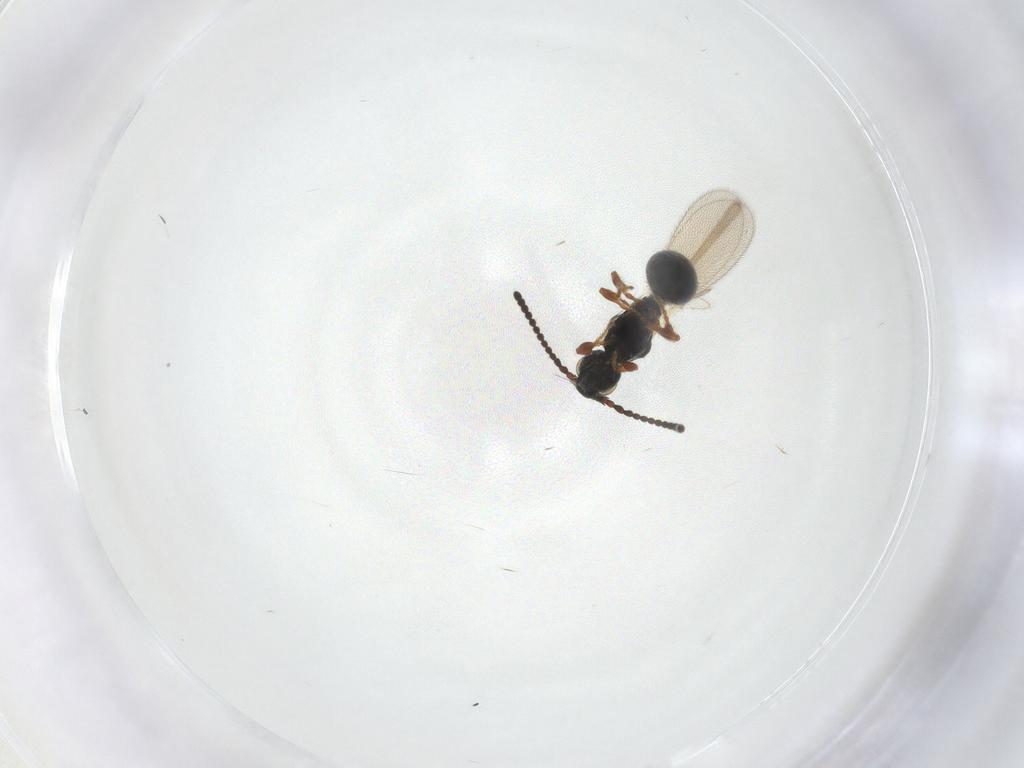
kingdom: Animalia
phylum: Arthropoda
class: Insecta
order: Hymenoptera
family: Diapriidae
